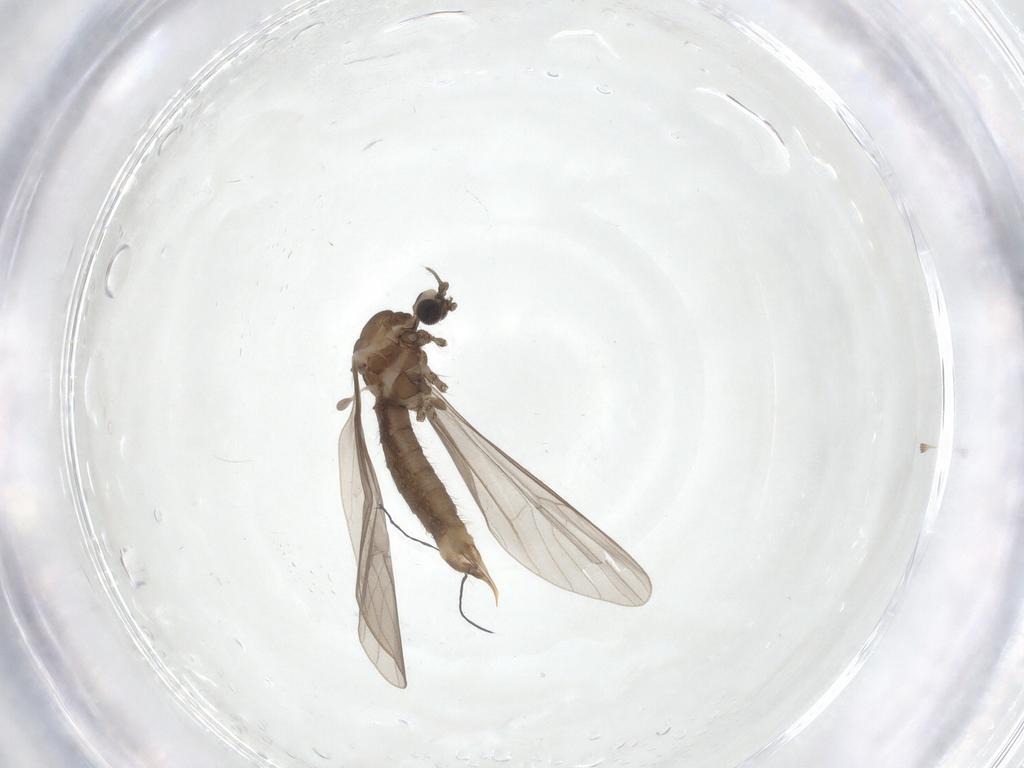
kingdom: Animalia
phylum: Arthropoda
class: Insecta
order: Diptera
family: Limoniidae
